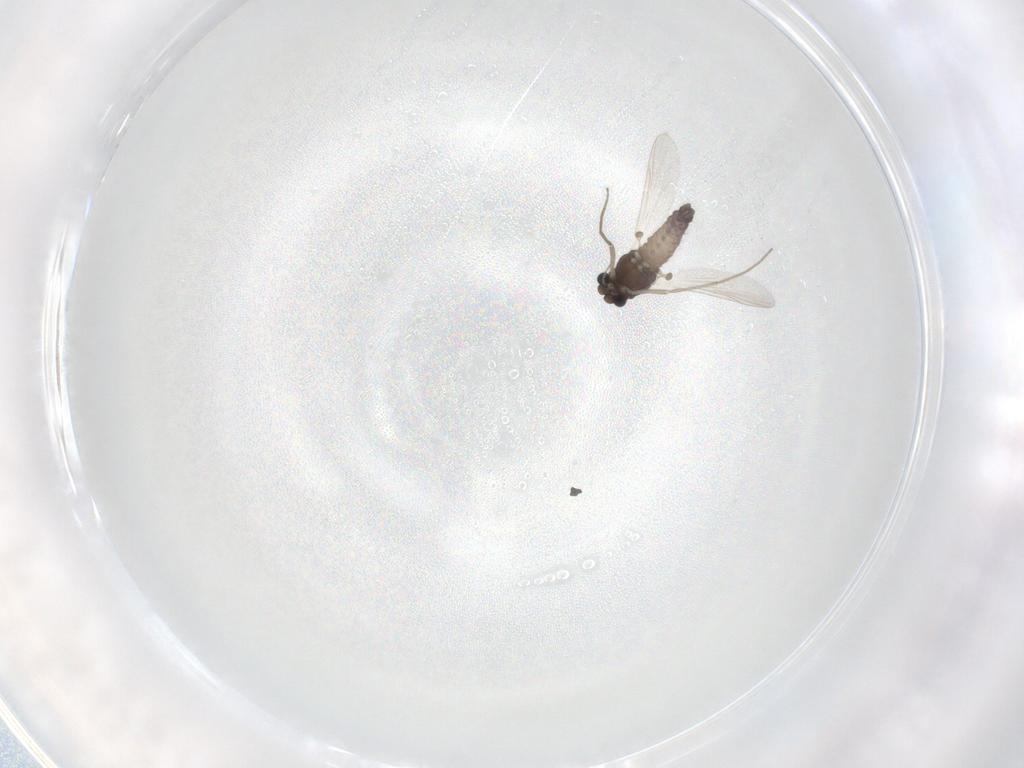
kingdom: Animalia
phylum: Arthropoda
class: Insecta
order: Diptera
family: Chironomidae
